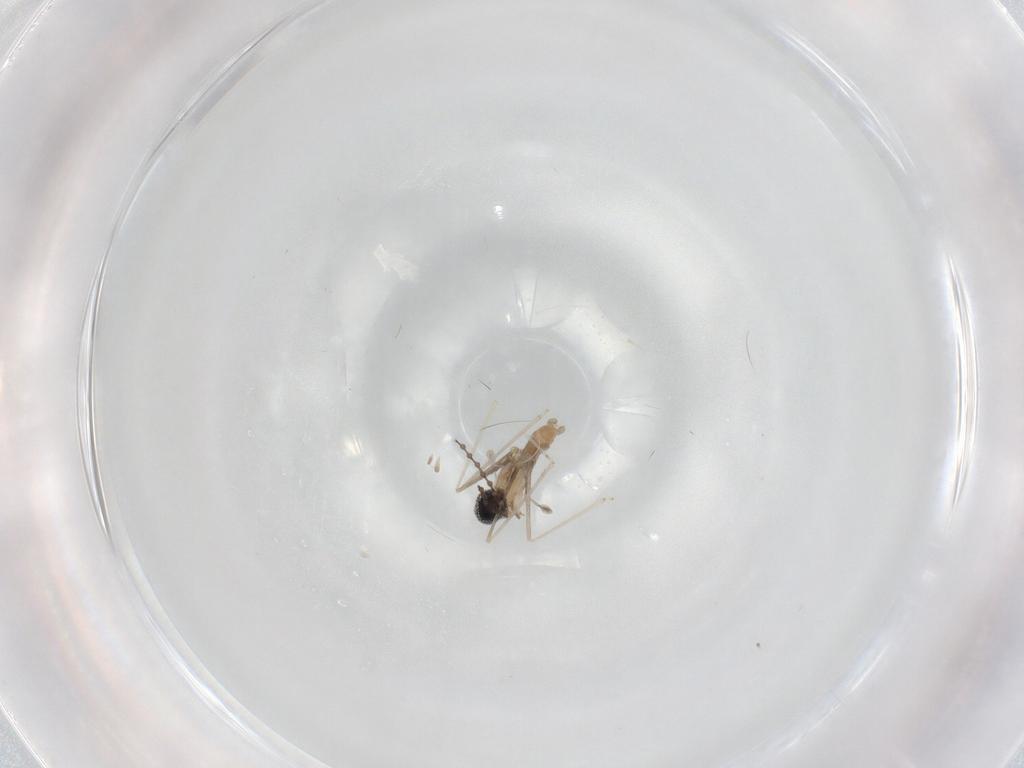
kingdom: Animalia
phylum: Arthropoda
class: Insecta
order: Diptera
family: Cecidomyiidae
